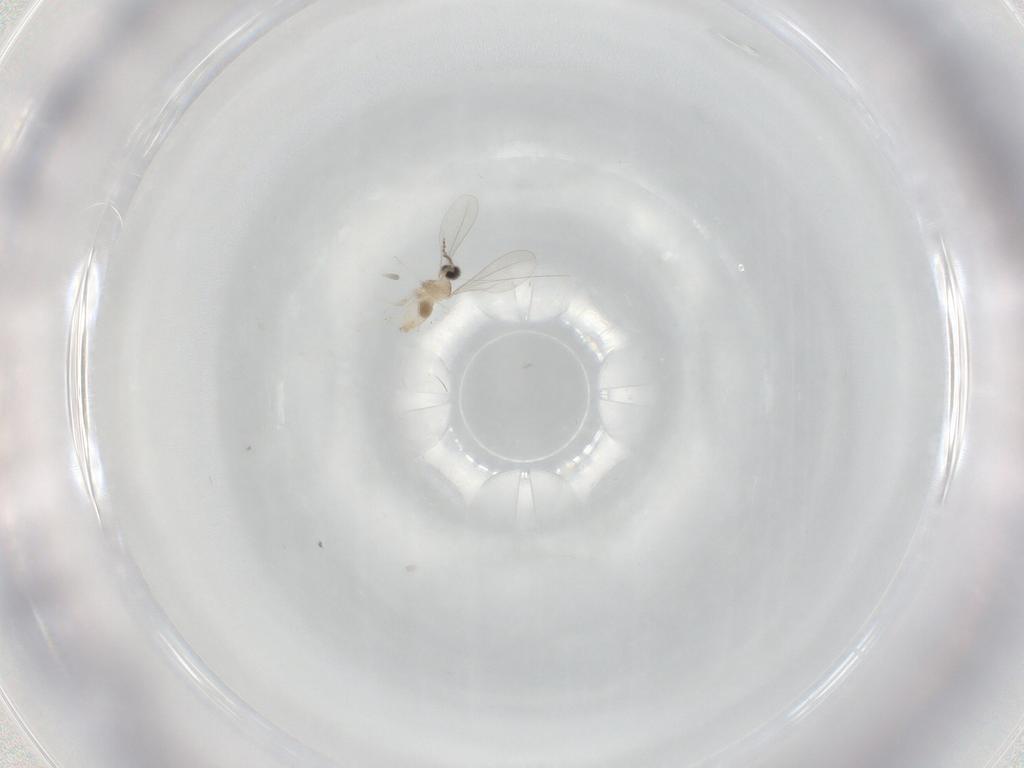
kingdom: Animalia
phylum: Arthropoda
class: Insecta
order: Diptera
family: Cecidomyiidae
